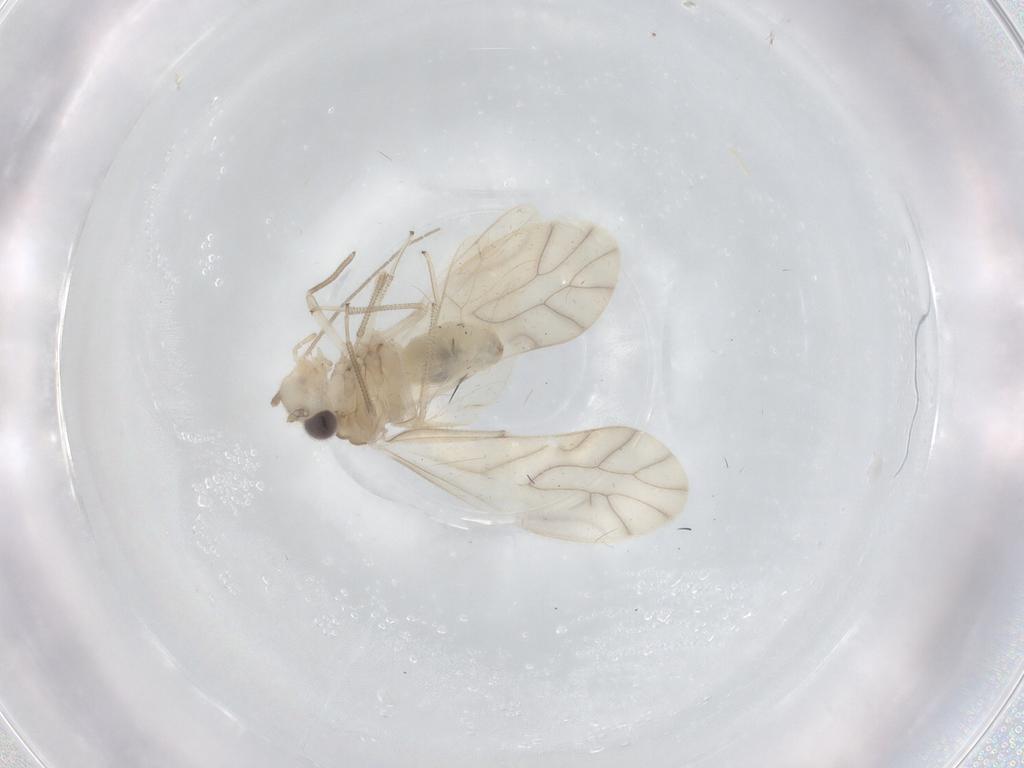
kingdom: Animalia
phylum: Arthropoda
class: Insecta
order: Psocodea
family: Caeciliusidae
